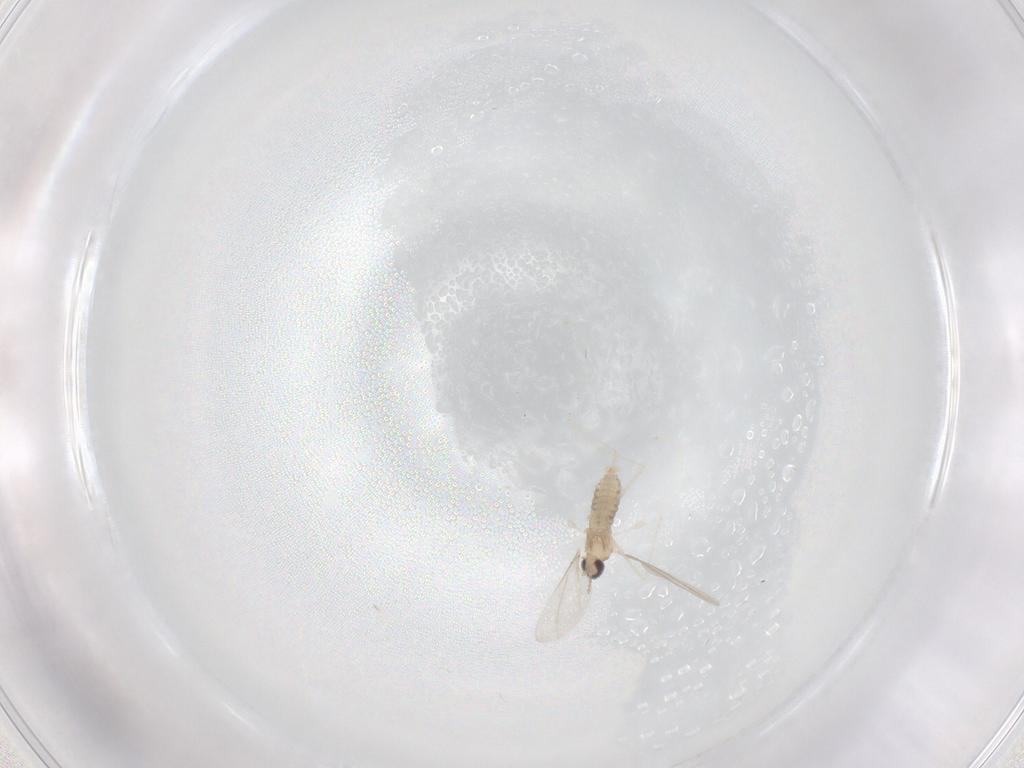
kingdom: Animalia
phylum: Arthropoda
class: Insecta
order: Diptera
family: Cecidomyiidae
